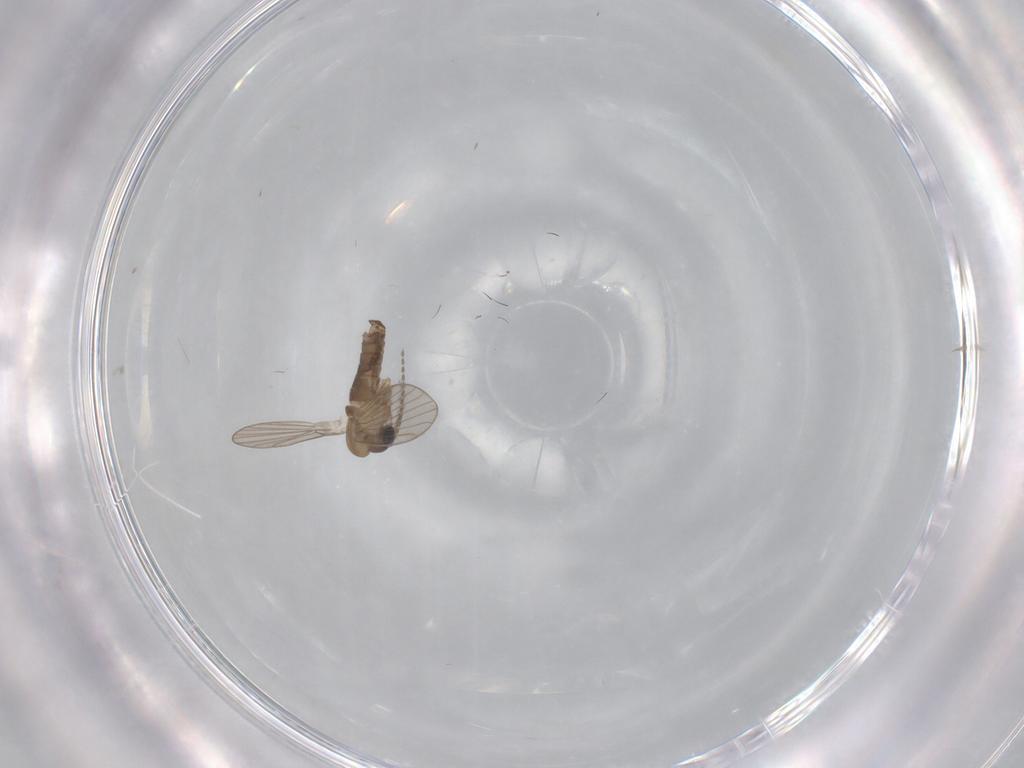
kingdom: Animalia
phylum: Arthropoda
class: Insecta
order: Diptera
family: Psychodidae
